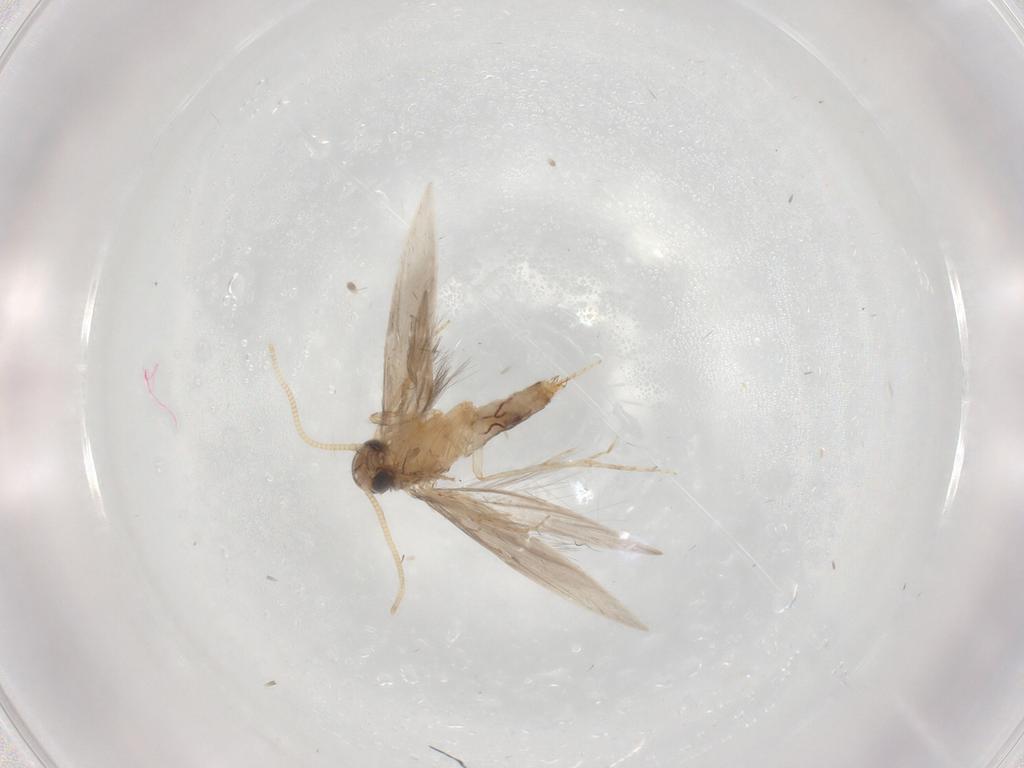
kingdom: Animalia
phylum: Arthropoda
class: Insecta
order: Trichoptera
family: Hydroptilidae
